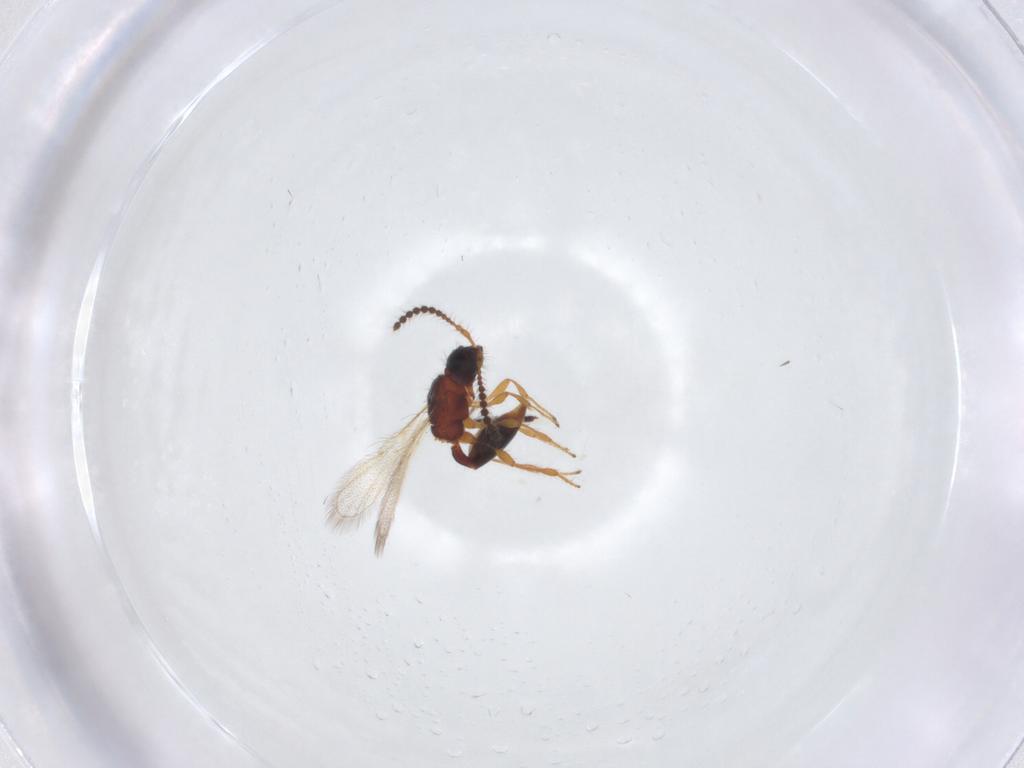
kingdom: Animalia
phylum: Arthropoda
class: Insecta
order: Hymenoptera
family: Diapriidae
